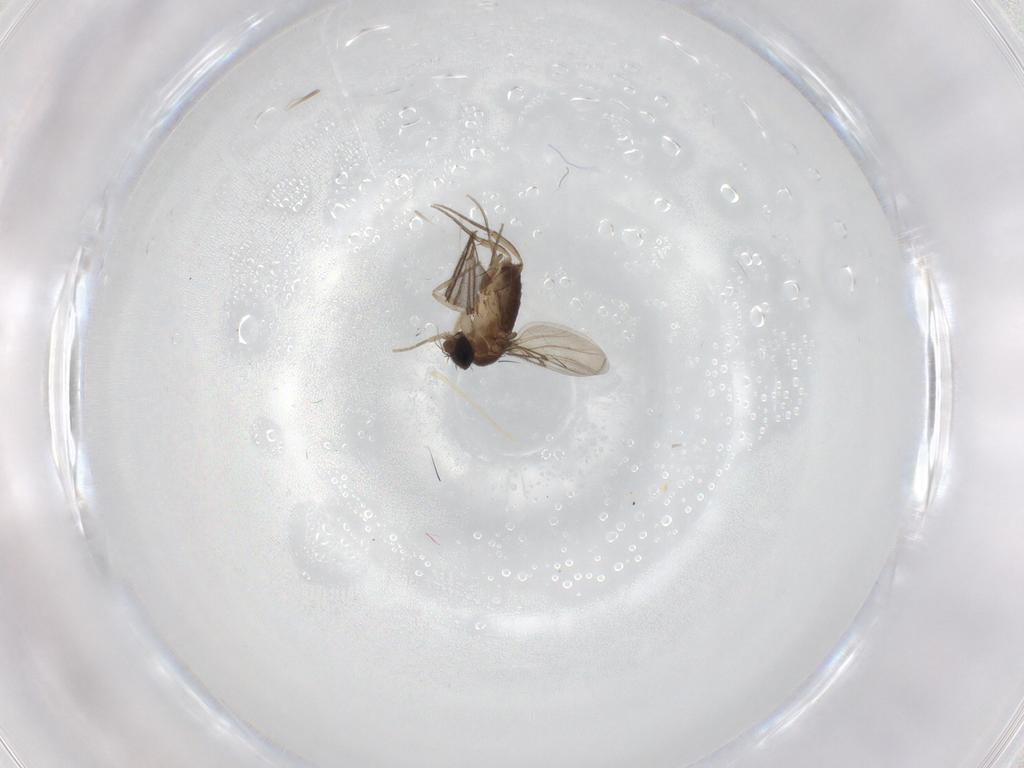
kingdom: Animalia
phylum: Arthropoda
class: Insecta
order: Diptera
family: Phoridae
